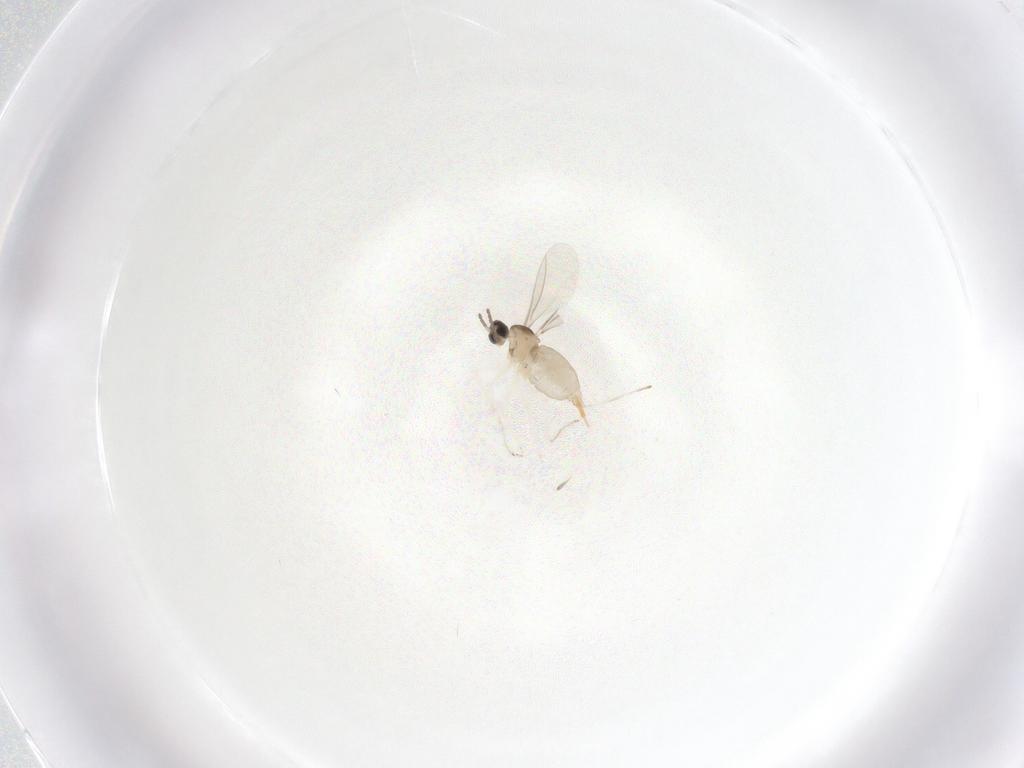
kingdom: Animalia
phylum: Arthropoda
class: Insecta
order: Diptera
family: Cecidomyiidae
